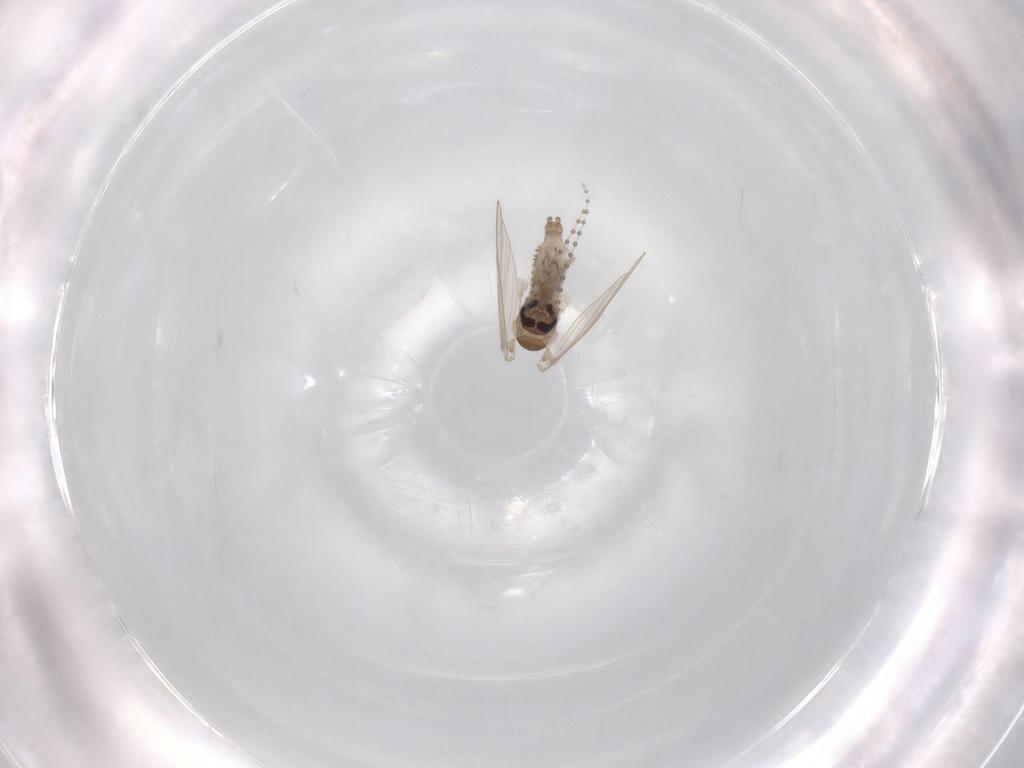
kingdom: Animalia
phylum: Arthropoda
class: Insecta
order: Diptera
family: Psychodidae
